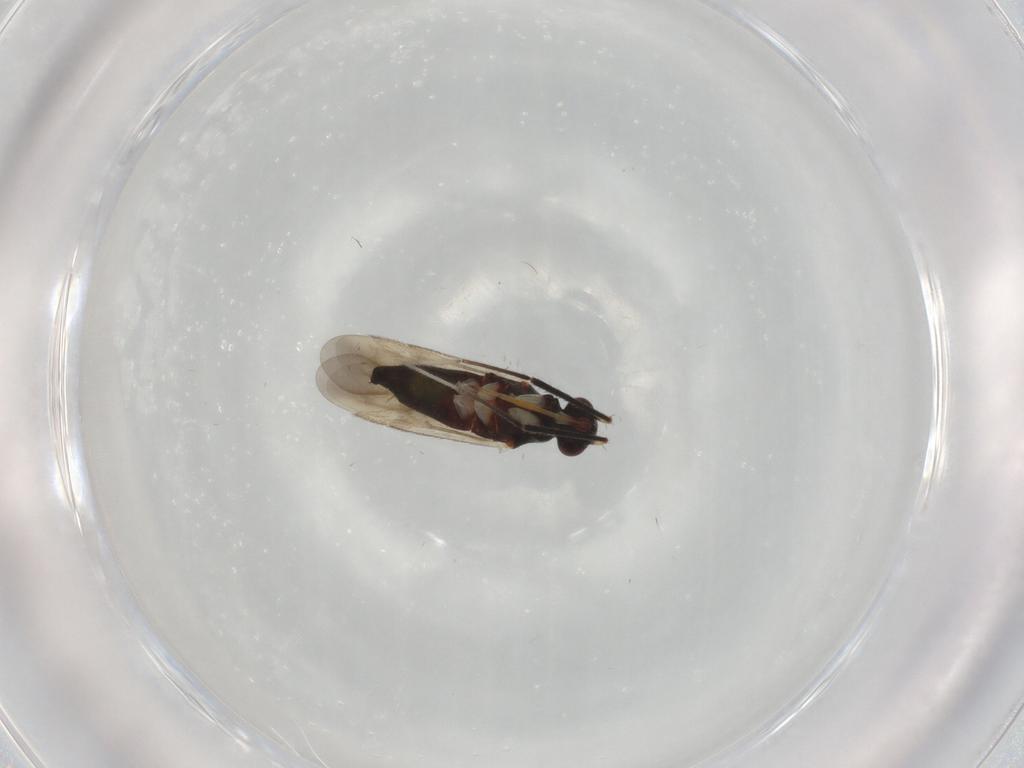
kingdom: Animalia
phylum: Arthropoda
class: Insecta
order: Hemiptera
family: Miridae
